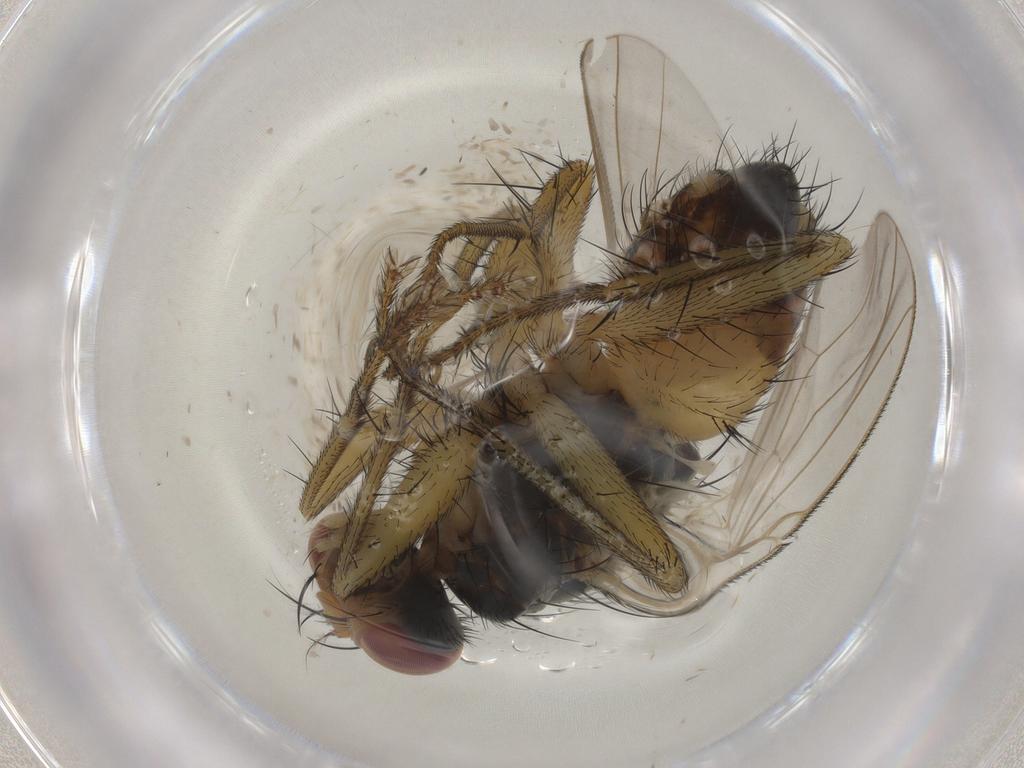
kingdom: Animalia
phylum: Arthropoda
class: Insecta
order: Diptera
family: Muscidae
